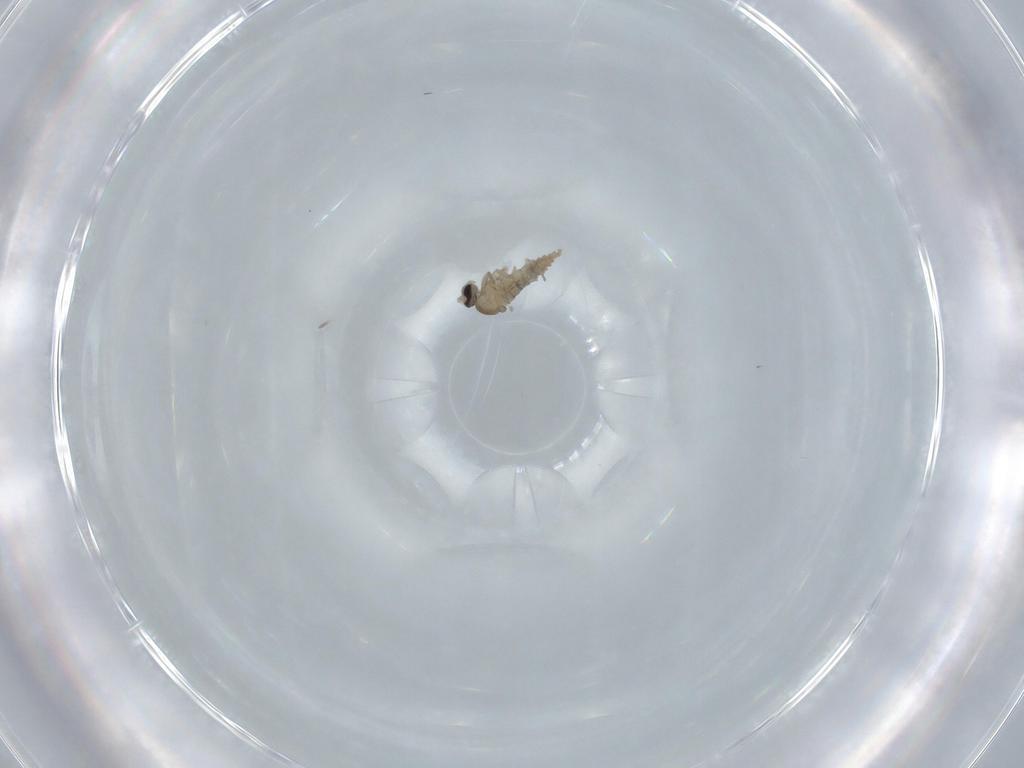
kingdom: Animalia
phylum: Arthropoda
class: Insecta
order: Diptera
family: Cecidomyiidae
